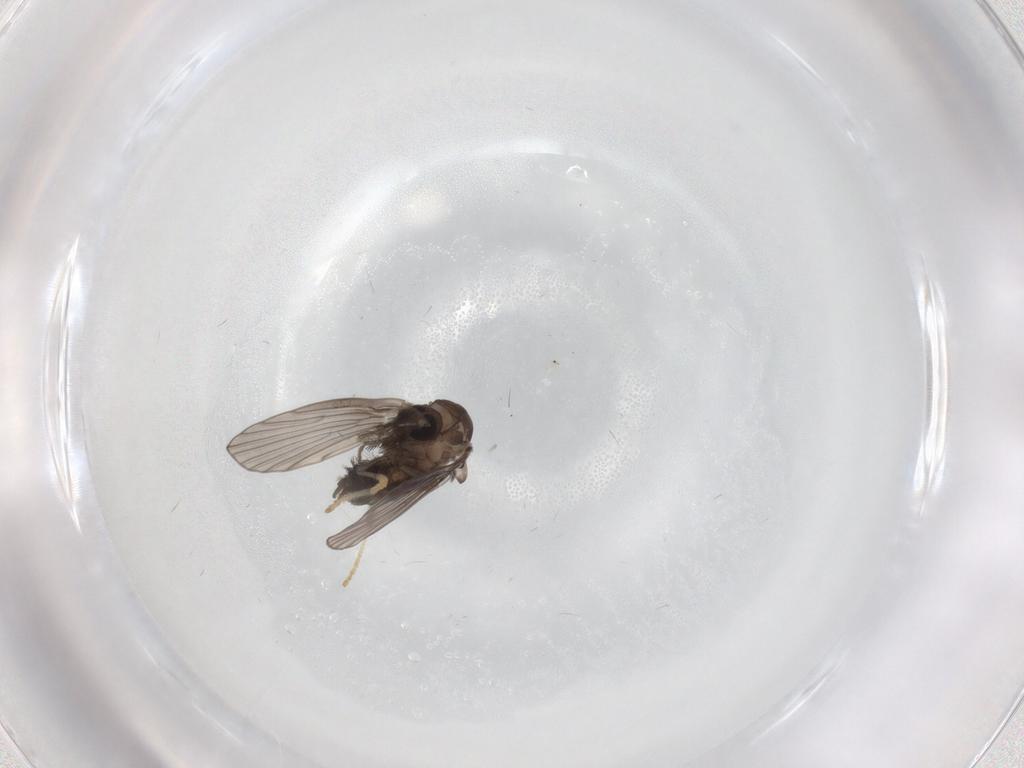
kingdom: Animalia
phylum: Arthropoda
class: Insecta
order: Diptera
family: Psychodidae
